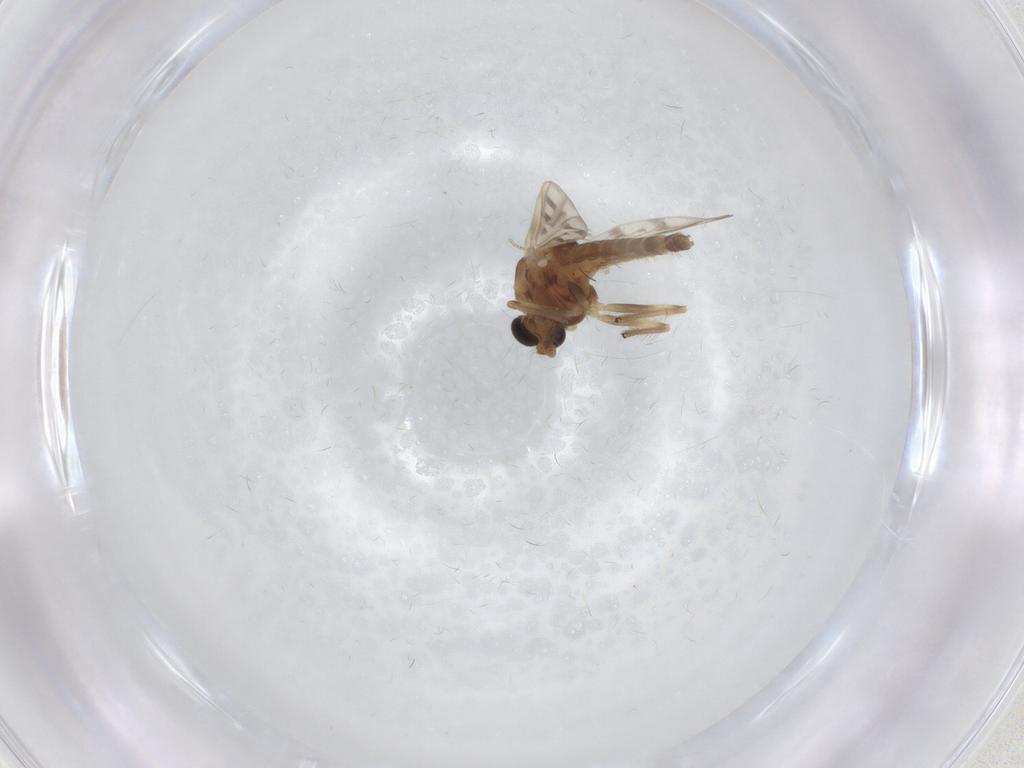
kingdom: Animalia
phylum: Arthropoda
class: Insecta
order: Diptera
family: Chironomidae
